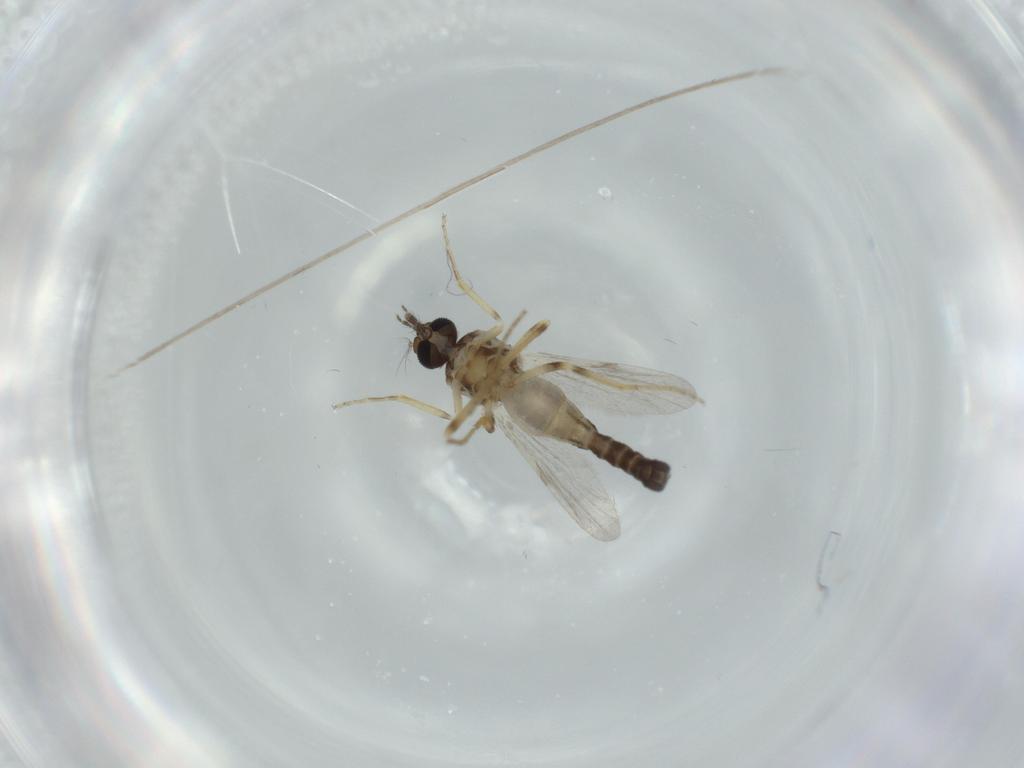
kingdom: Animalia
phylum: Arthropoda
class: Insecta
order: Diptera
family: Ceratopogonidae
